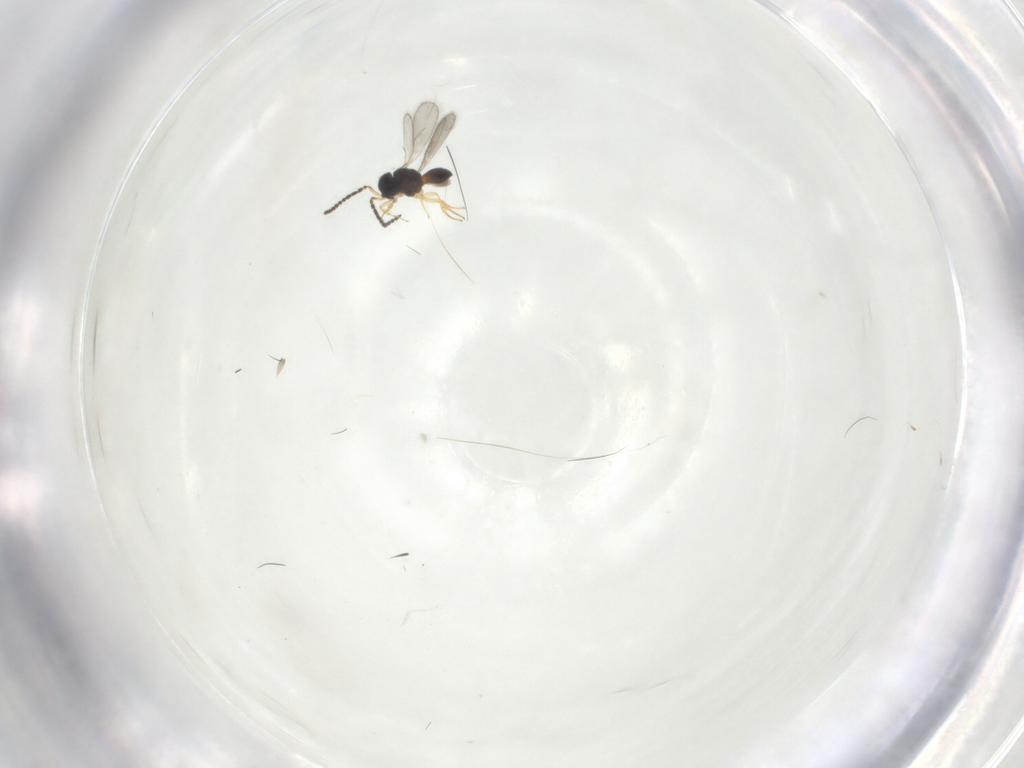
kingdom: Animalia
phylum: Arthropoda
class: Insecta
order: Hymenoptera
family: Scelionidae
